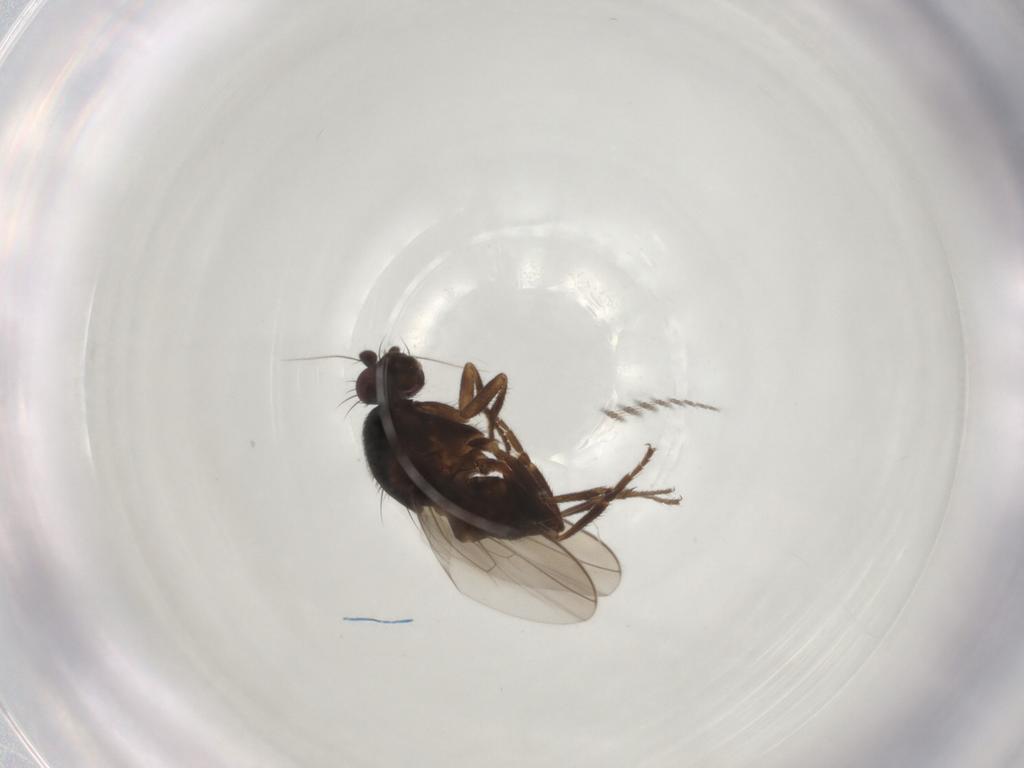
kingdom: Animalia
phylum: Arthropoda
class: Insecta
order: Diptera
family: Sphaeroceridae
